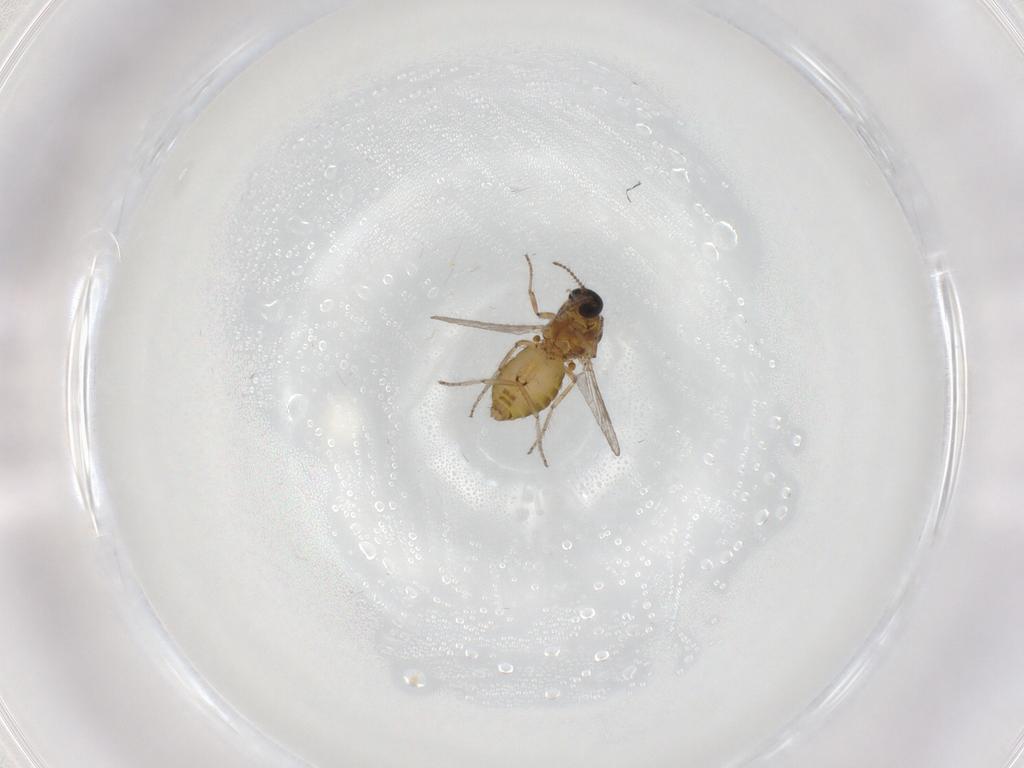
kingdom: Animalia
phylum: Arthropoda
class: Insecta
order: Diptera
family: Ceratopogonidae
